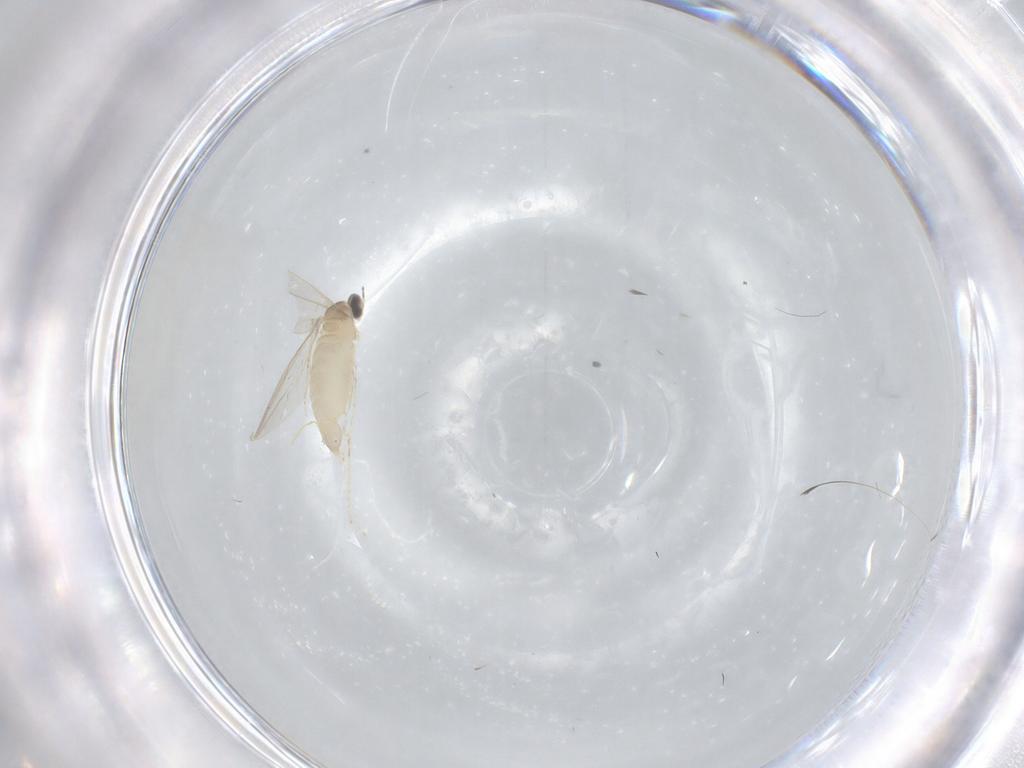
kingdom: Animalia
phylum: Arthropoda
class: Insecta
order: Diptera
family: Cecidomyiidae
